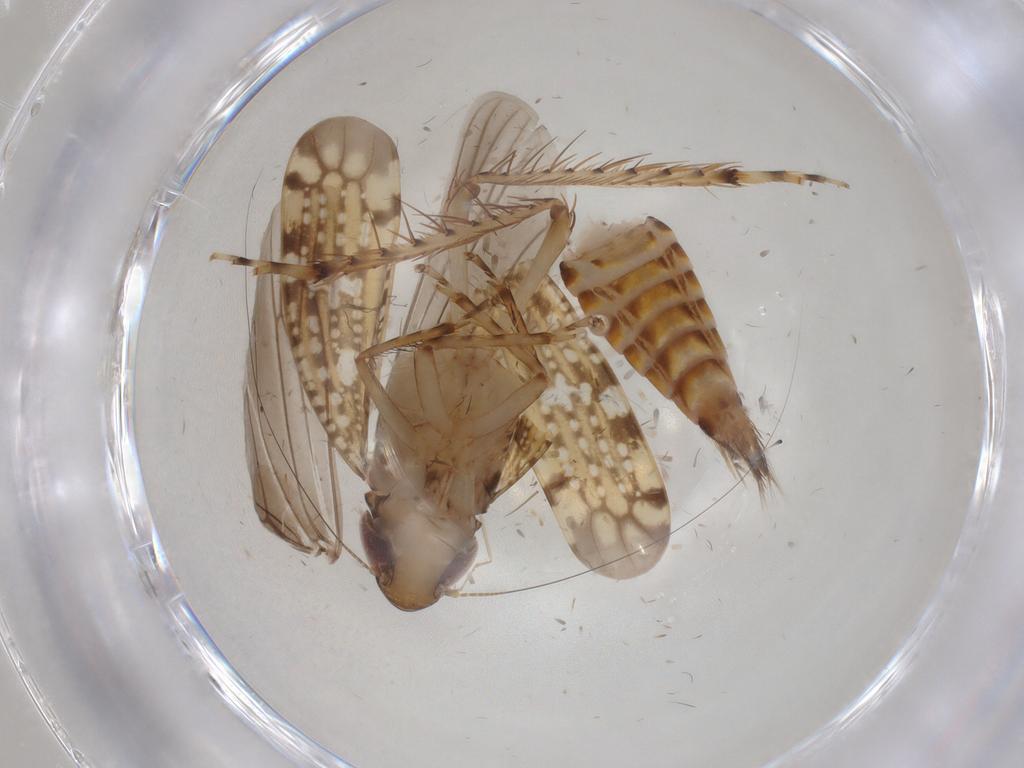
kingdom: Animalia
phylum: Arthropoda
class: Insecta
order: Hemiptera
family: Cicadellidae
